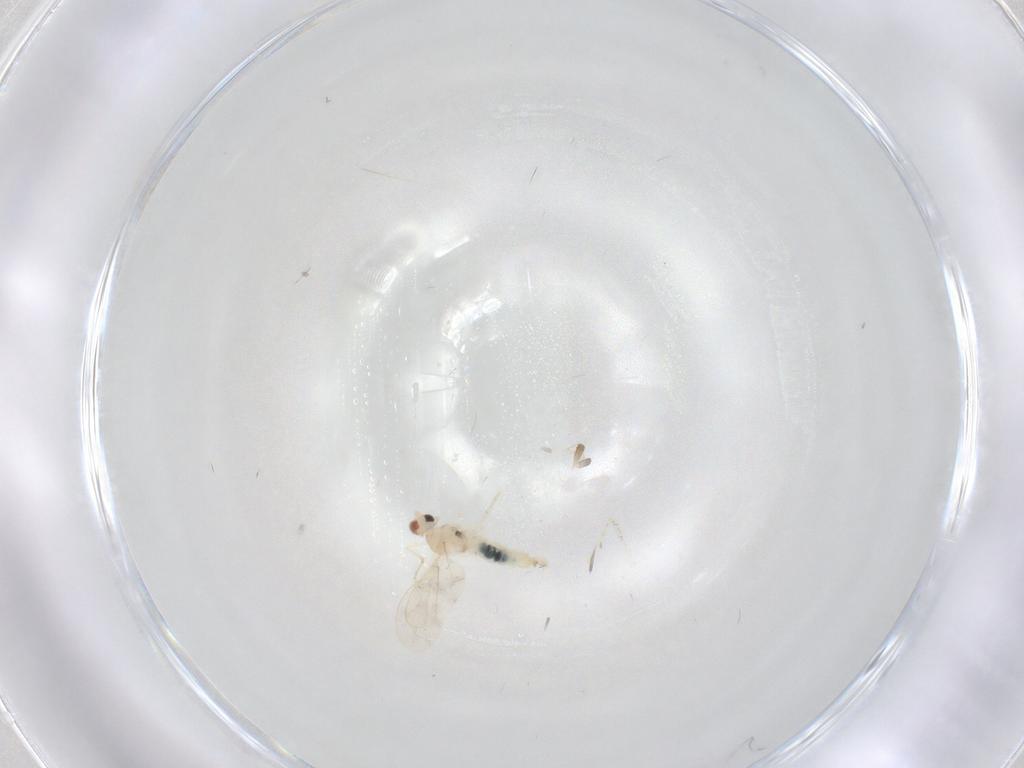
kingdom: Animalia
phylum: Arthropoda
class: Insecta
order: Diptera
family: Cecidomyiidae
